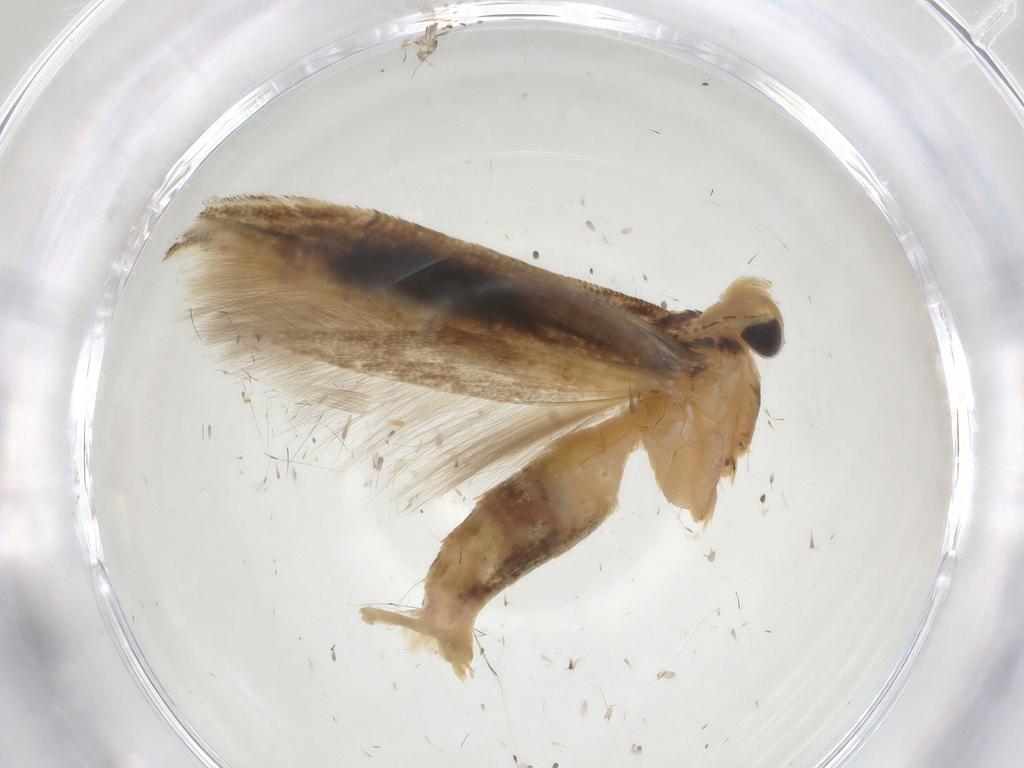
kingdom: Animalia
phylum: Arthropoda
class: Insecta
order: Lepidoptera
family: Momphidae
